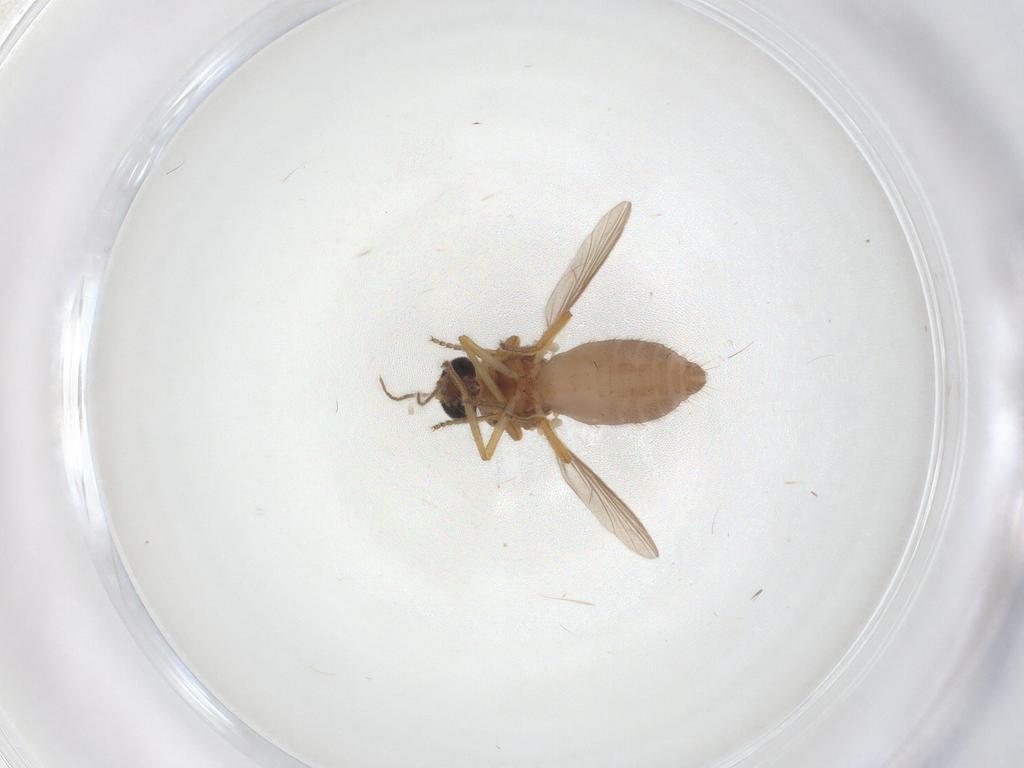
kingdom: Animalia
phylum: Arthropoda
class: Insecta
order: Diptera
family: Ceratopogonidae
